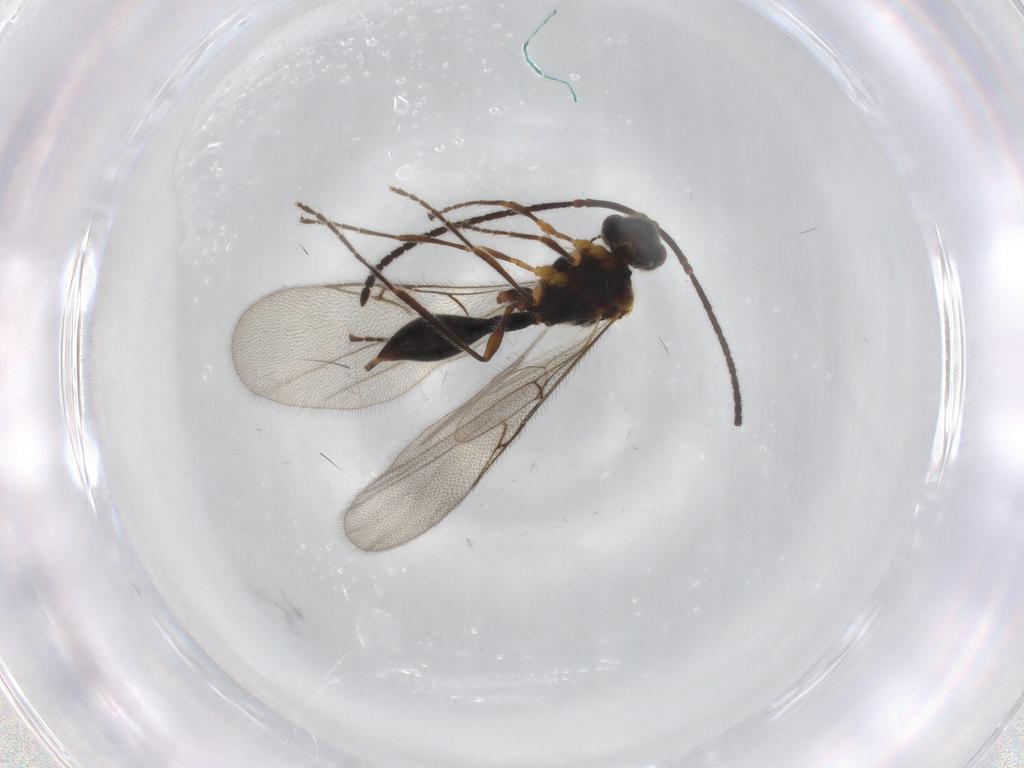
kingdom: Animalia
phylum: Arthropoda
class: Insecta
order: Hymenoptera
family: Diapriidae
